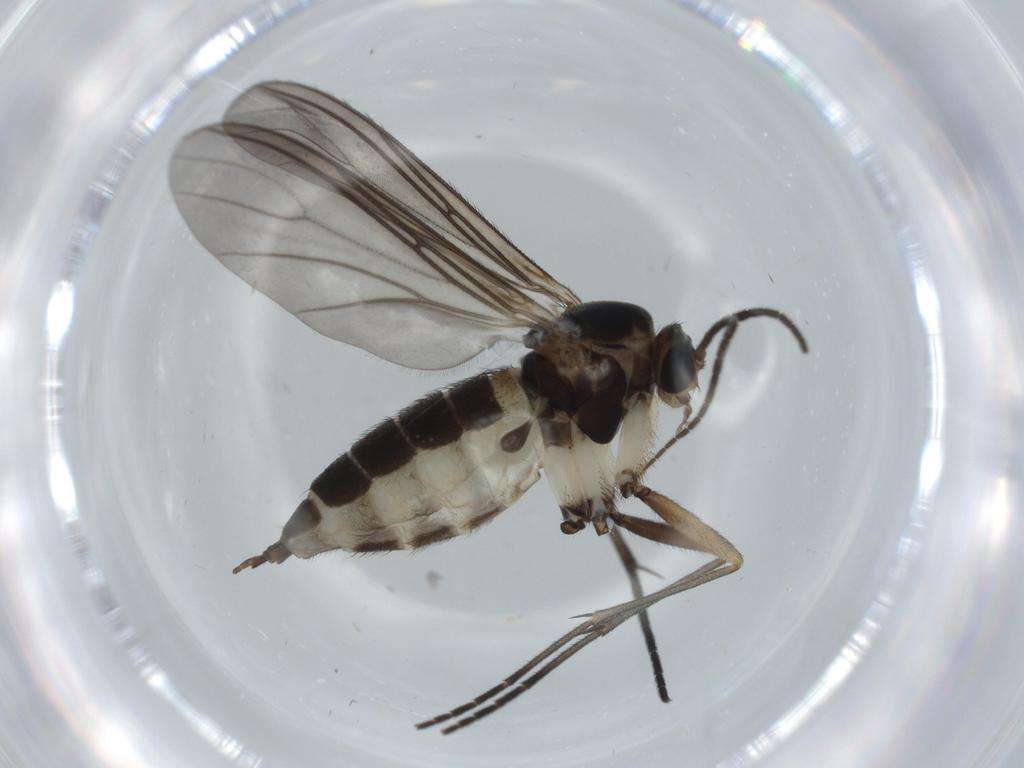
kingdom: Animalia
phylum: Arthropoda
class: Insecta
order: Diptera
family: Sciaridae
